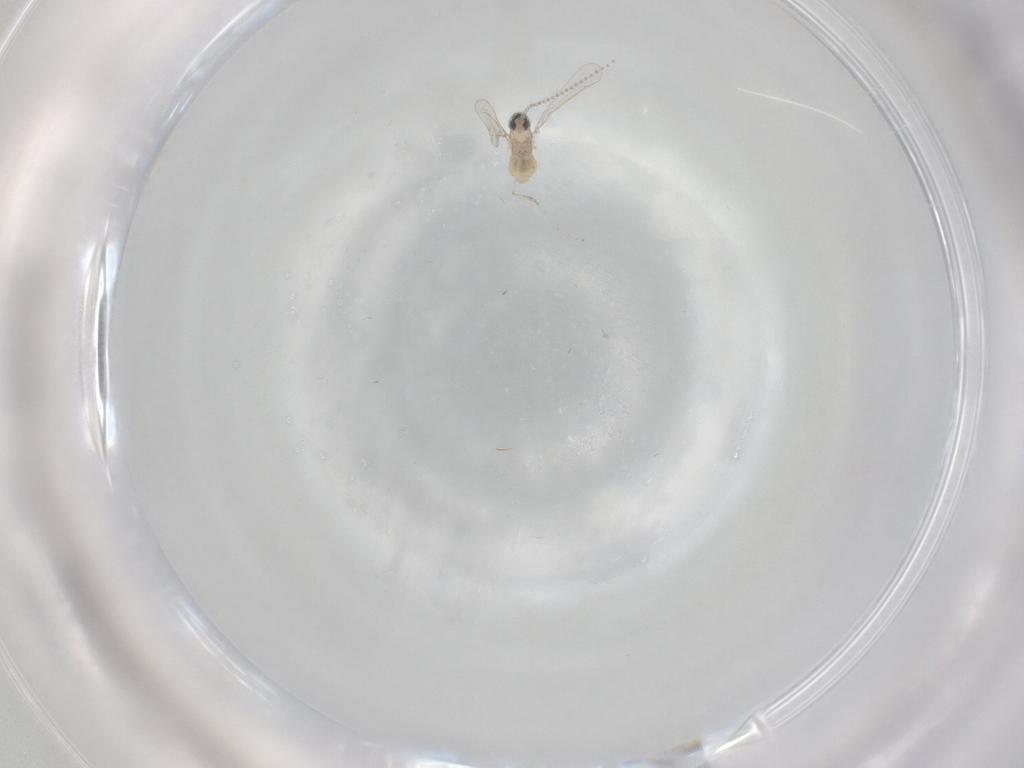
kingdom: Animalia
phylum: Arthropoda
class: Insecta
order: Diptera
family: Cecidomyiidae
